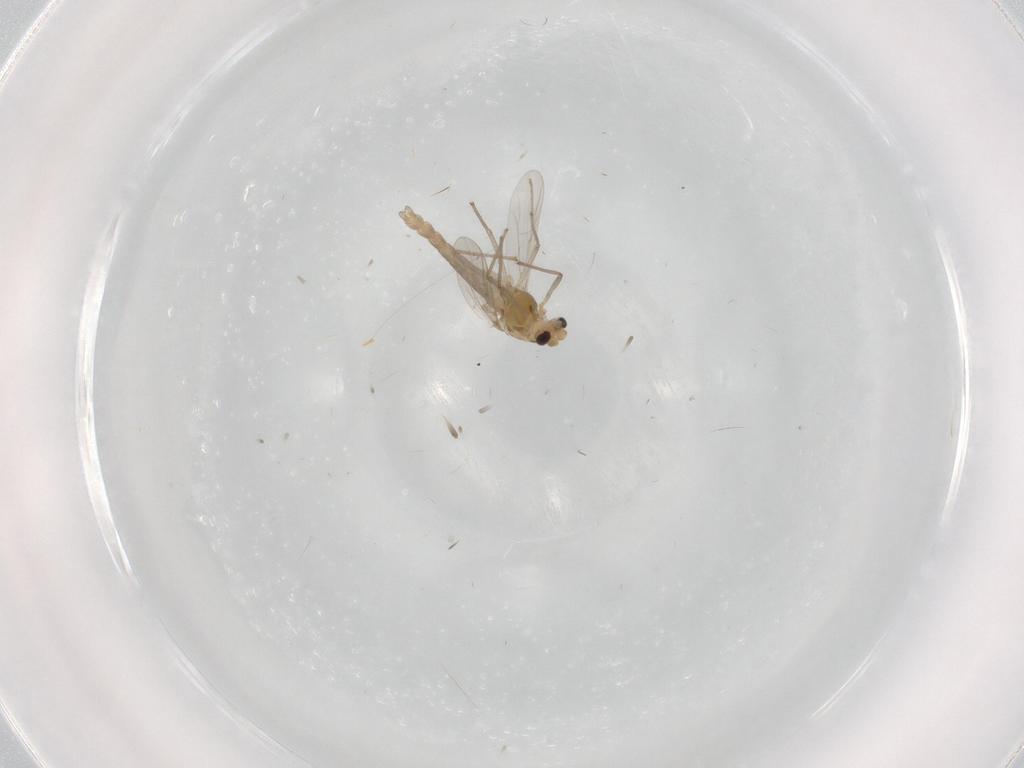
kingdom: Animalia
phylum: Arthropoda
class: Insecta
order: Diptera
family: Chironomidae
